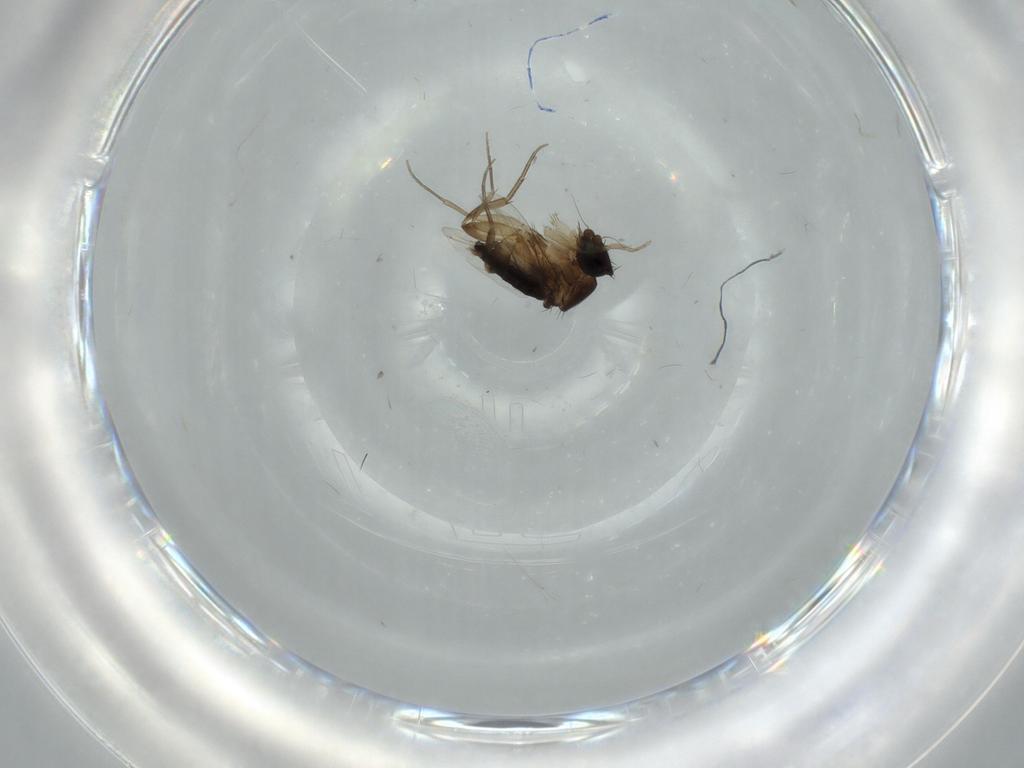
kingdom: Animalia
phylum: Arthropoda
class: Insecta
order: Diptera
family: Phoridae
